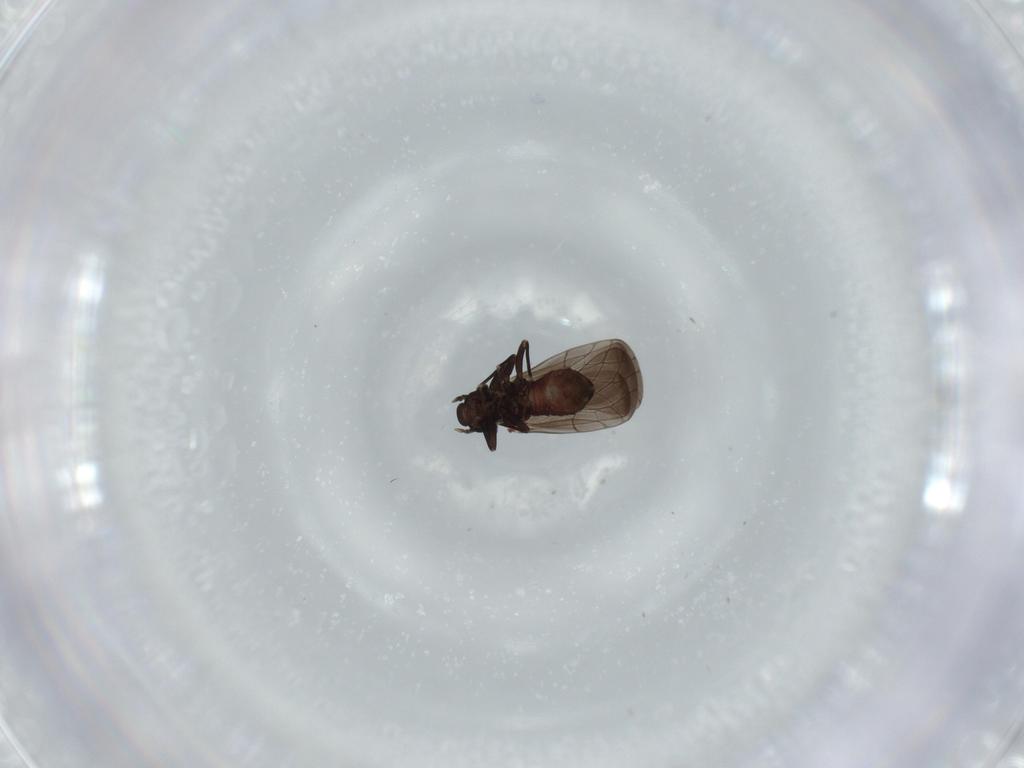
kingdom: Animalia
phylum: Arthropoda
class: Insecta
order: Psocodea
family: Lepidopsocidae
